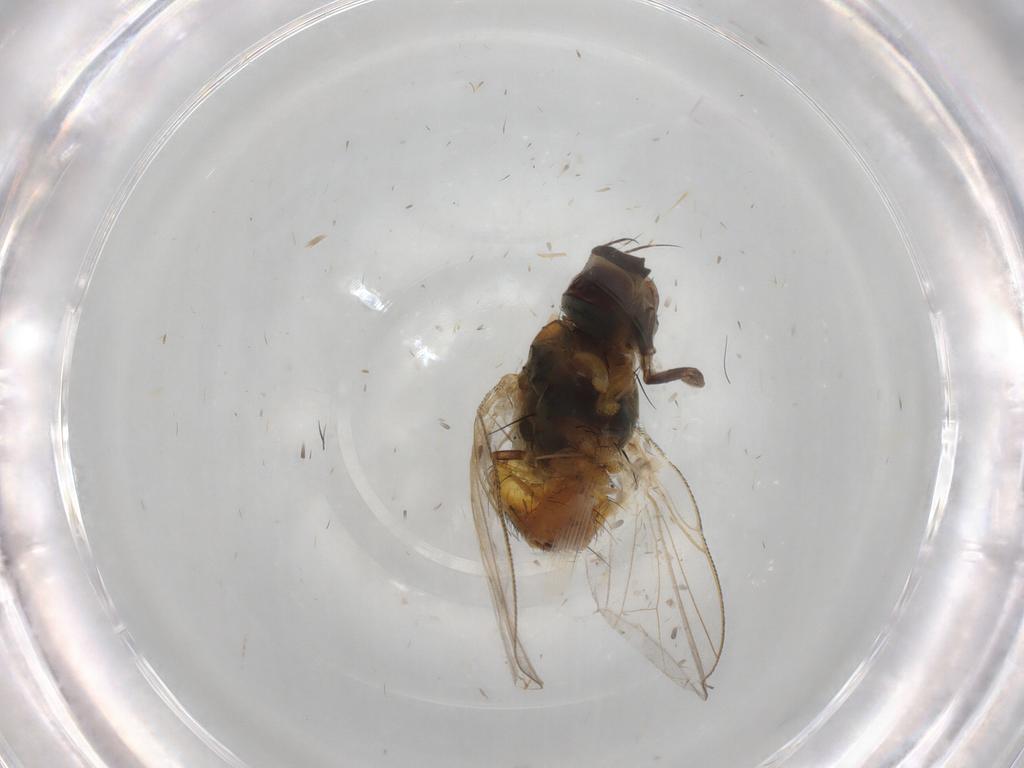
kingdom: Animalia
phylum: Arthropoda
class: Insecta
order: Diptera
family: Muscidae
